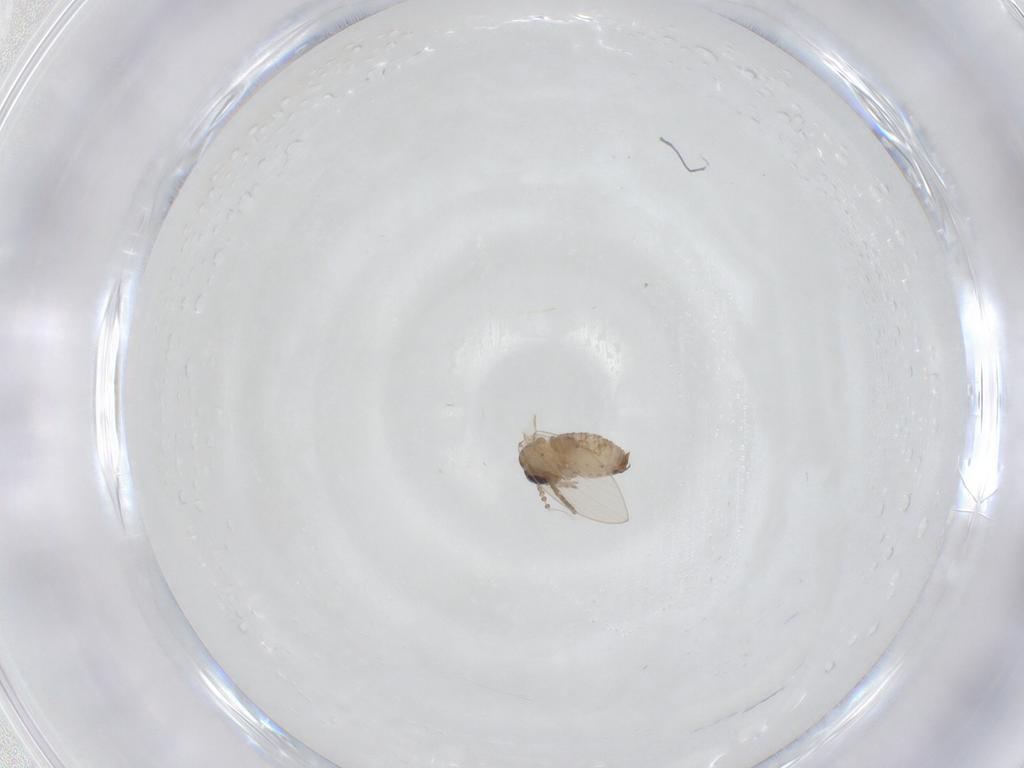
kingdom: Animalia
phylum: Arthropoda
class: Insecta
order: Diptera
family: Psychodidae
